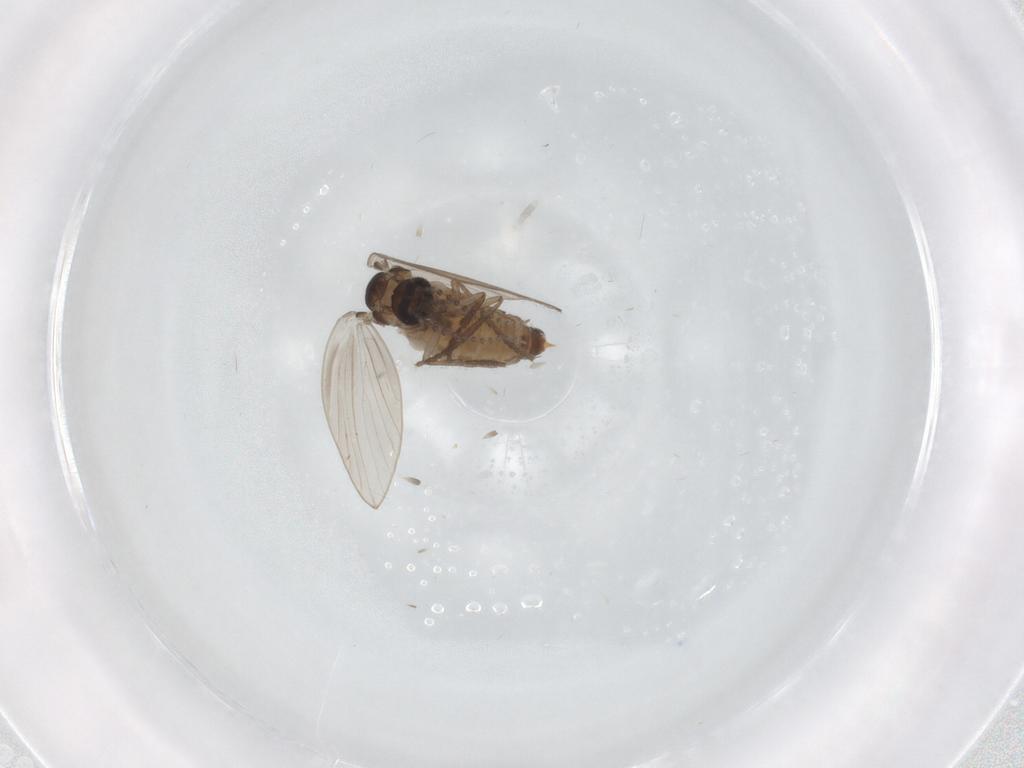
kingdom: Animalia
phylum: Arthropoda
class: Insecta
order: Diptera
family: Psychodidae
